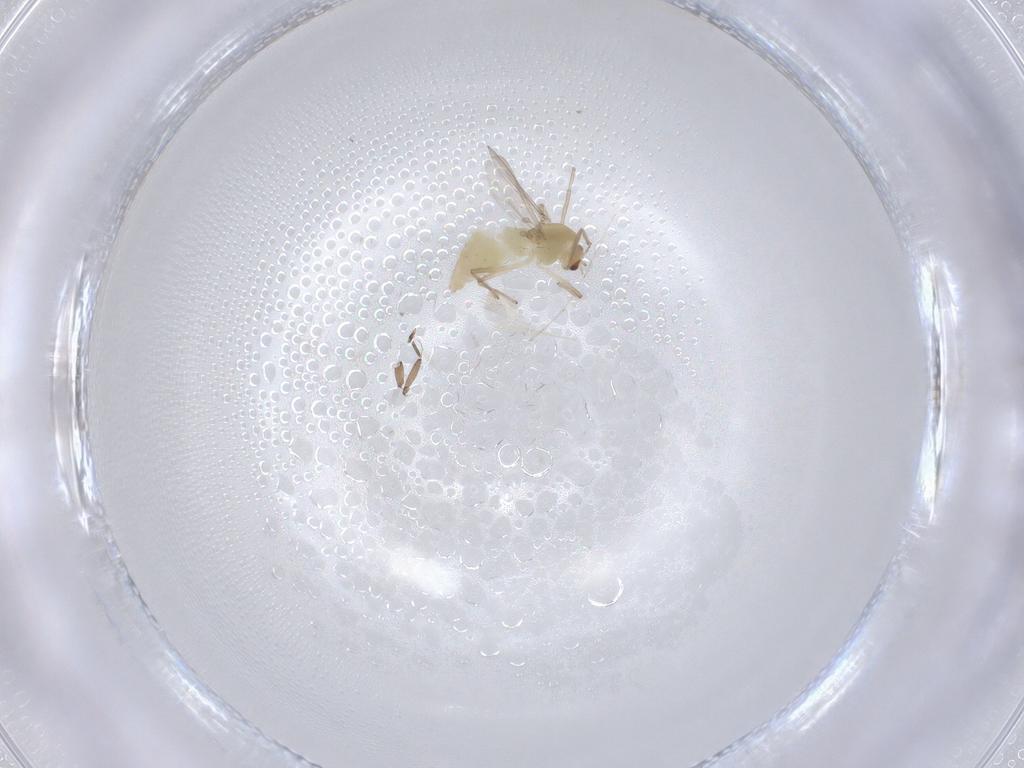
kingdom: Animalia
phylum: Arthropoda
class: Insecta
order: Diptera
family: Chironomidae
